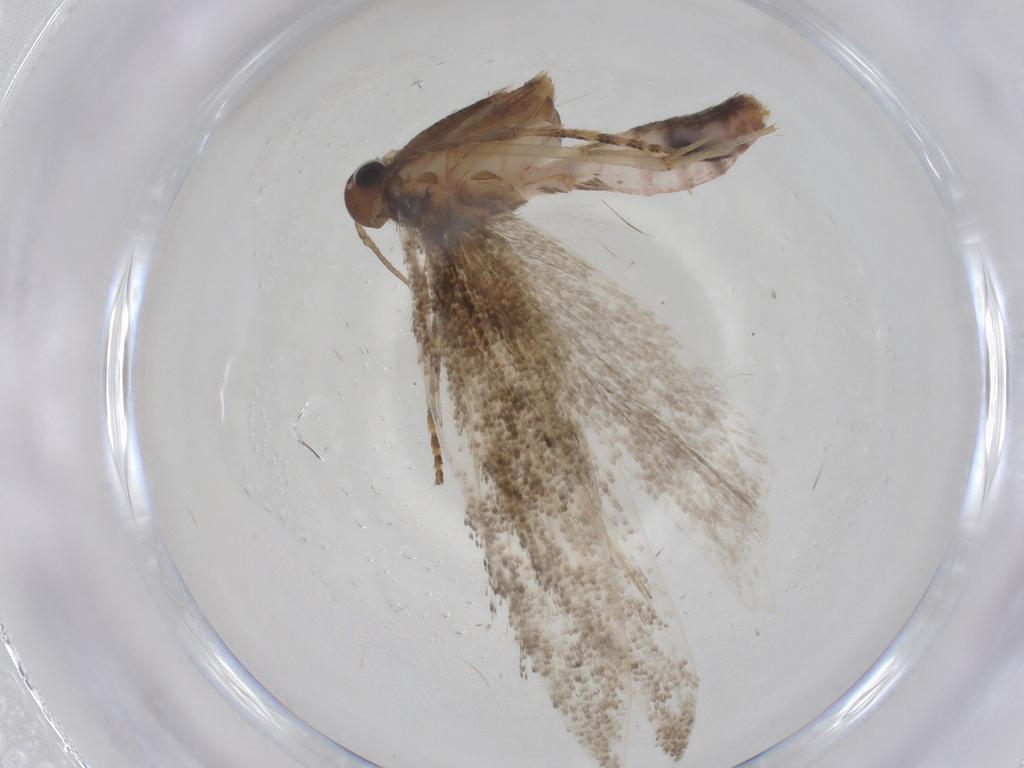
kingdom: Animalia
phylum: Arthropoda
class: Insecta
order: Lepidoptera
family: Gelechiidae
